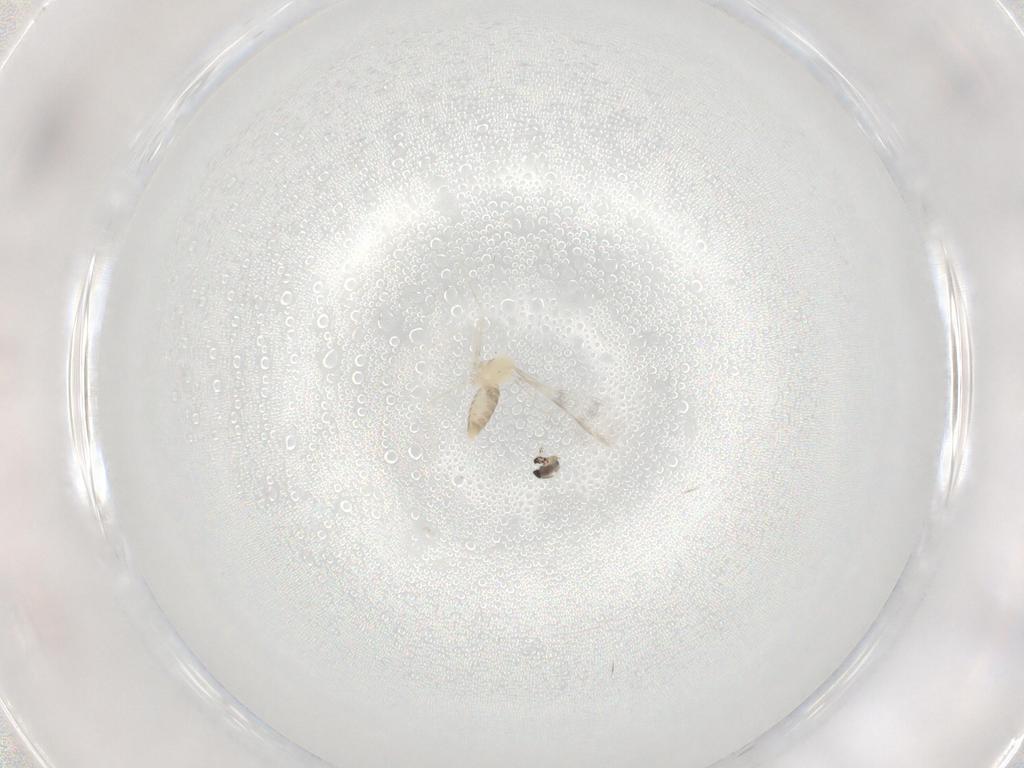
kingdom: Animalia
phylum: Arthropoda
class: Insecta
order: Diptera
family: Cecidomyiidae
